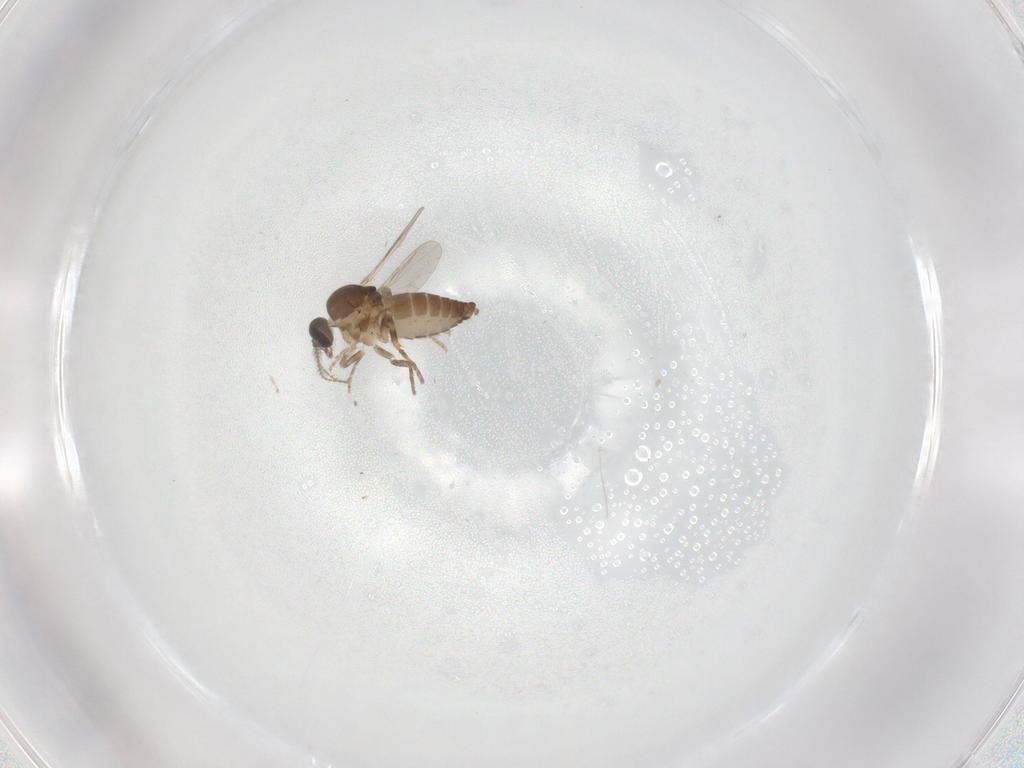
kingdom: Animalia
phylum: Arthropoda
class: Insecta
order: Diptera
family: Ceratopogonidae
